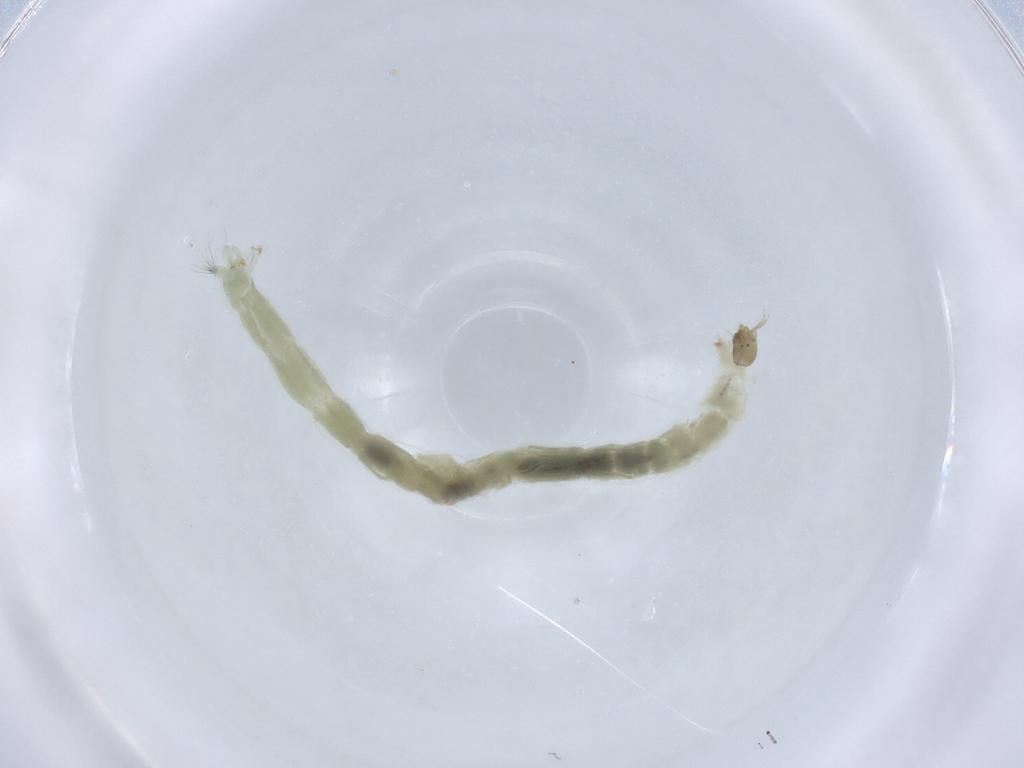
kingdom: Animalia
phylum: Arthropoda
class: Insecta
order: Diptera
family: Chironomidae
